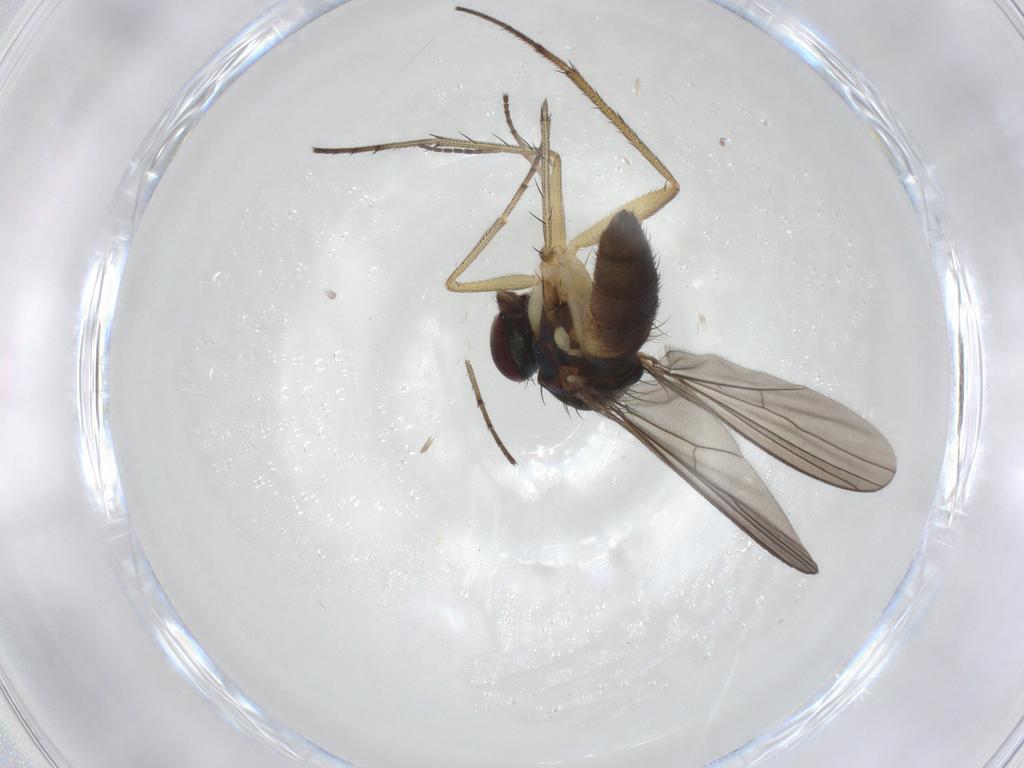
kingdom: Animalia
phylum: Arthropoda
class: Insecta
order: Diptera
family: Dolichopodidae
